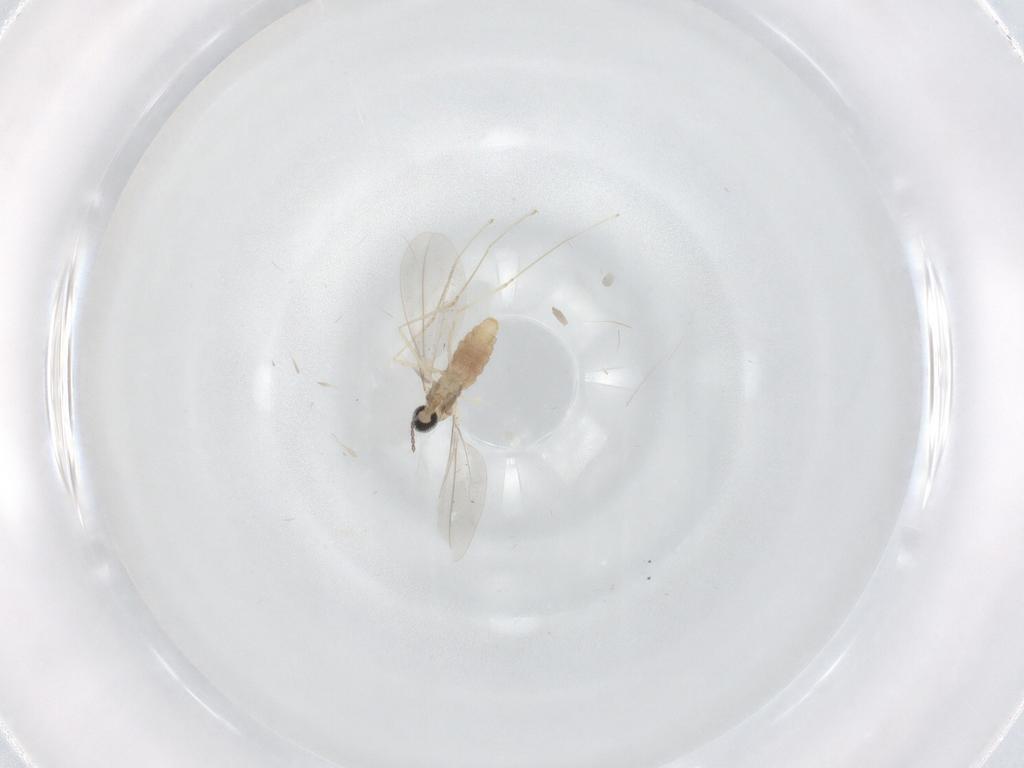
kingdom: Animalia
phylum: Arthropoda
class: Insecta
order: Diptera
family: Cecidomyiidae
